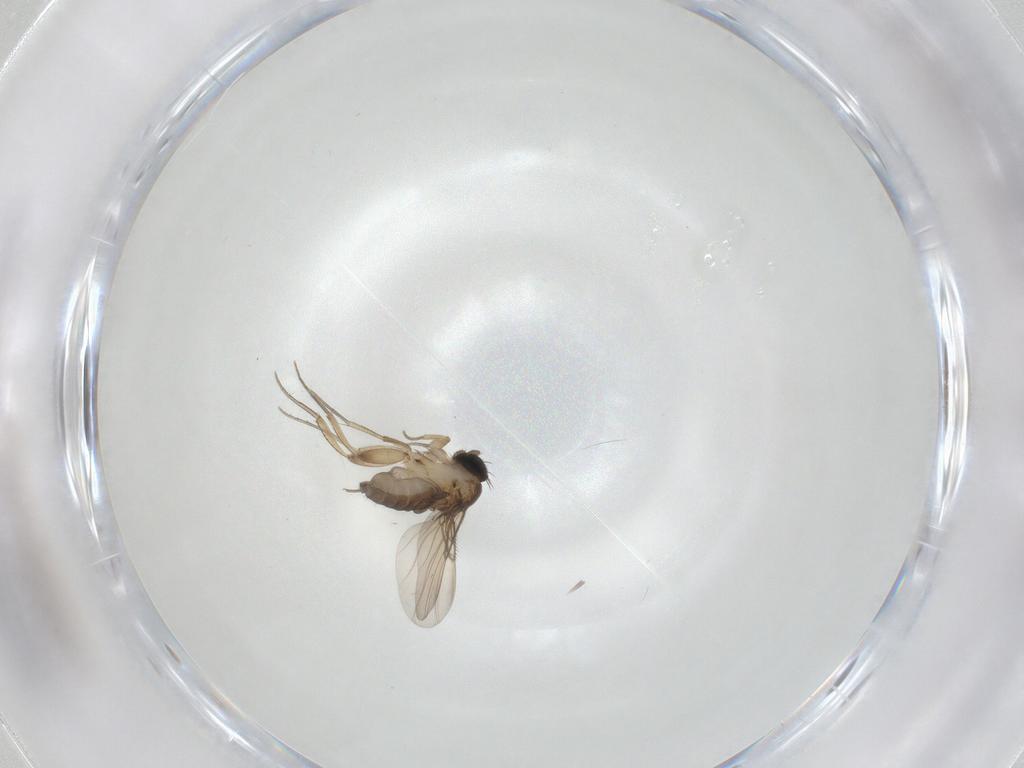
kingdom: Animalia
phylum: Arthropoda
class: Insecta
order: Diptera
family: Phoridae
